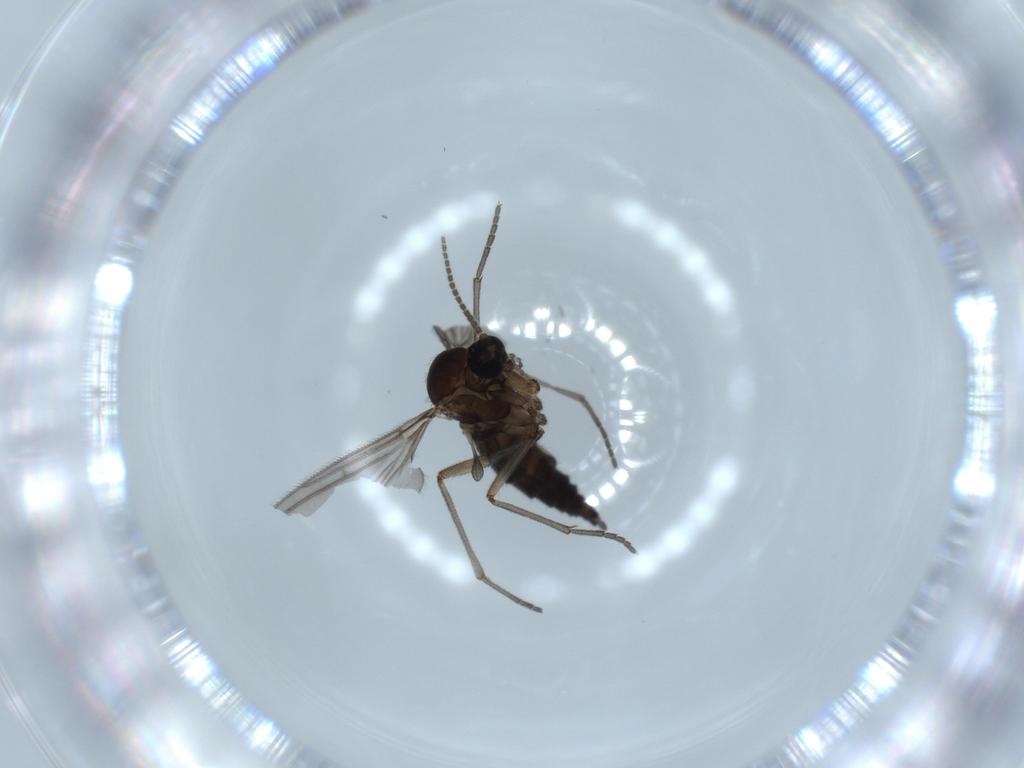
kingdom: Animalia
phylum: Arthropoda
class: Insecta
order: Diptera
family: Sciaridae
